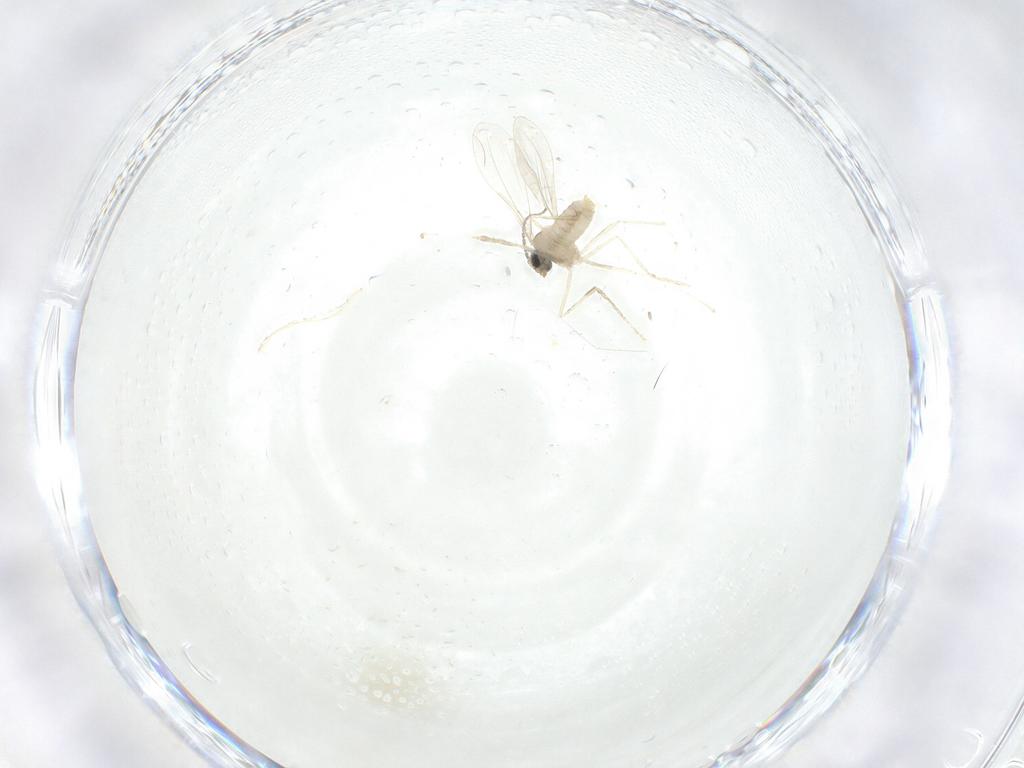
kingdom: Animalia
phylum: Arthropoda
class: Insecta
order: Diptera
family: Cecidomyiidae
